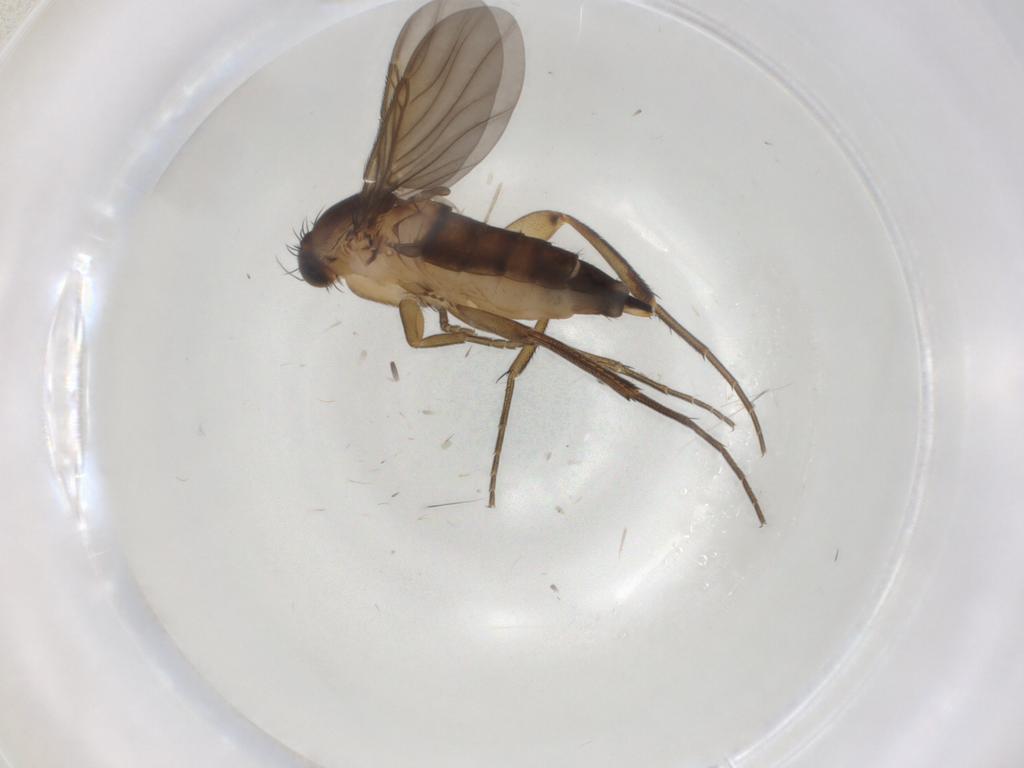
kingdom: Animalia
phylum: Arthropoda
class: Insecta
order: Diptera
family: Phoridae
